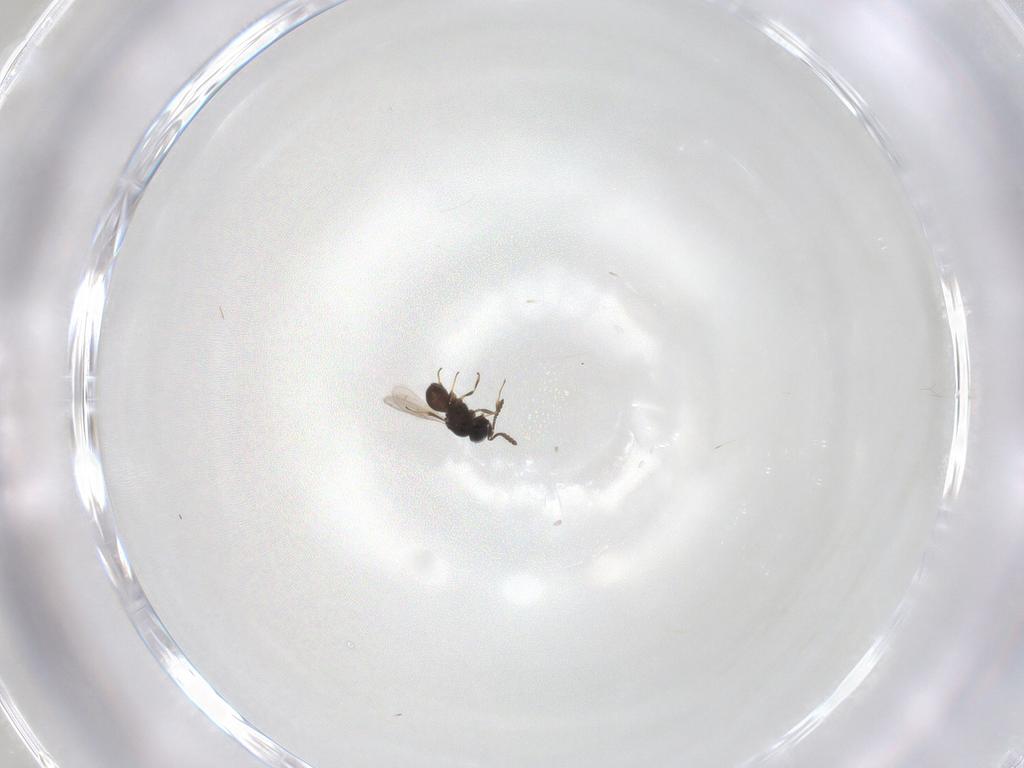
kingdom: Animalia
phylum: Arthropoda
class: Insecta
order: Hymenoptera
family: Scelionidae
